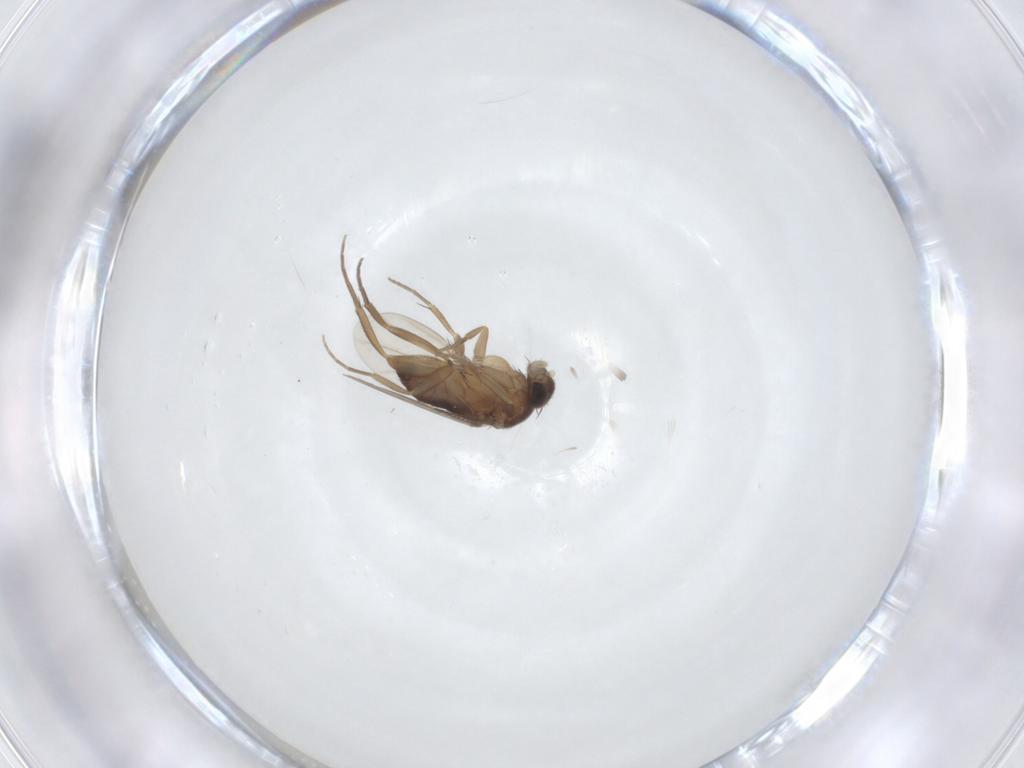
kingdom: Animalia
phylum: Arthropoda
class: Insecta
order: Diptera
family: Phoridae
